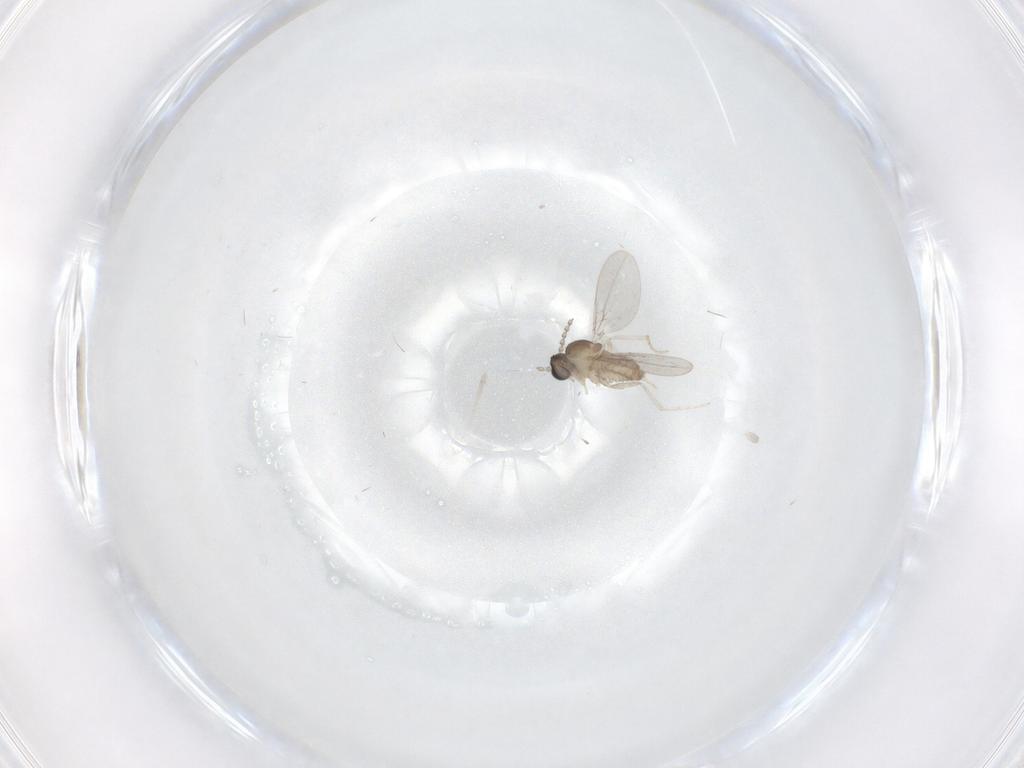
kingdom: Animalia
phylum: Arthropoda
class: Insecta
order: Diptera
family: Cecidomyiidae
